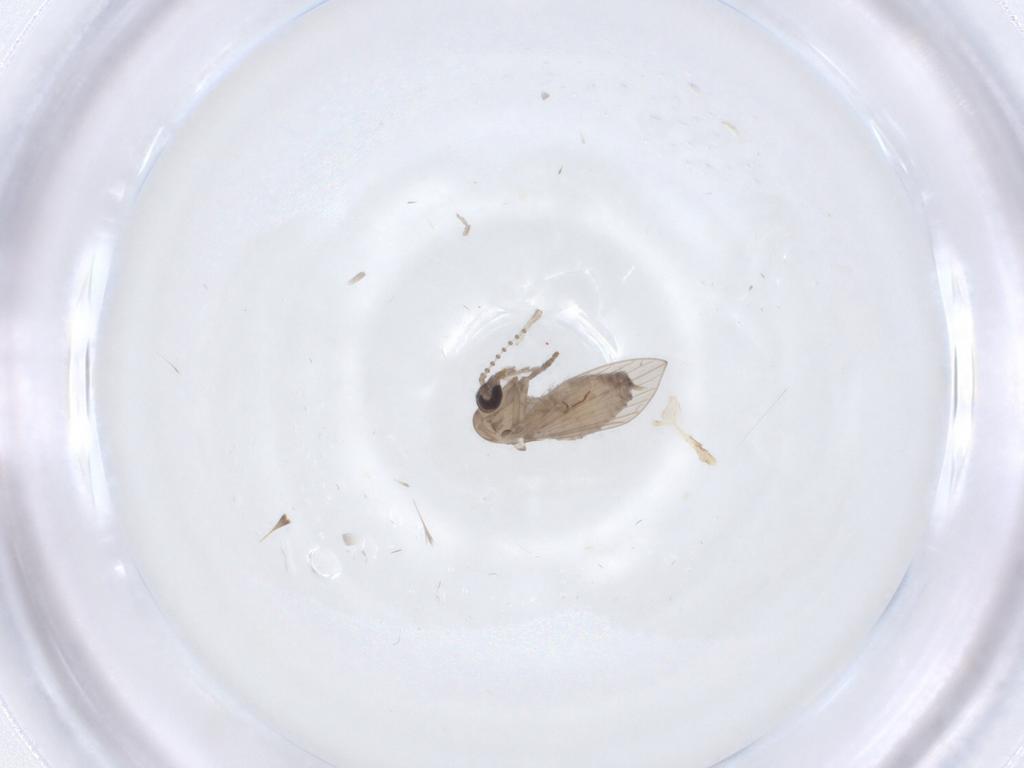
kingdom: Animalia
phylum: Arthropoda
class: Insecta
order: Diptera
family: Psychodidae
